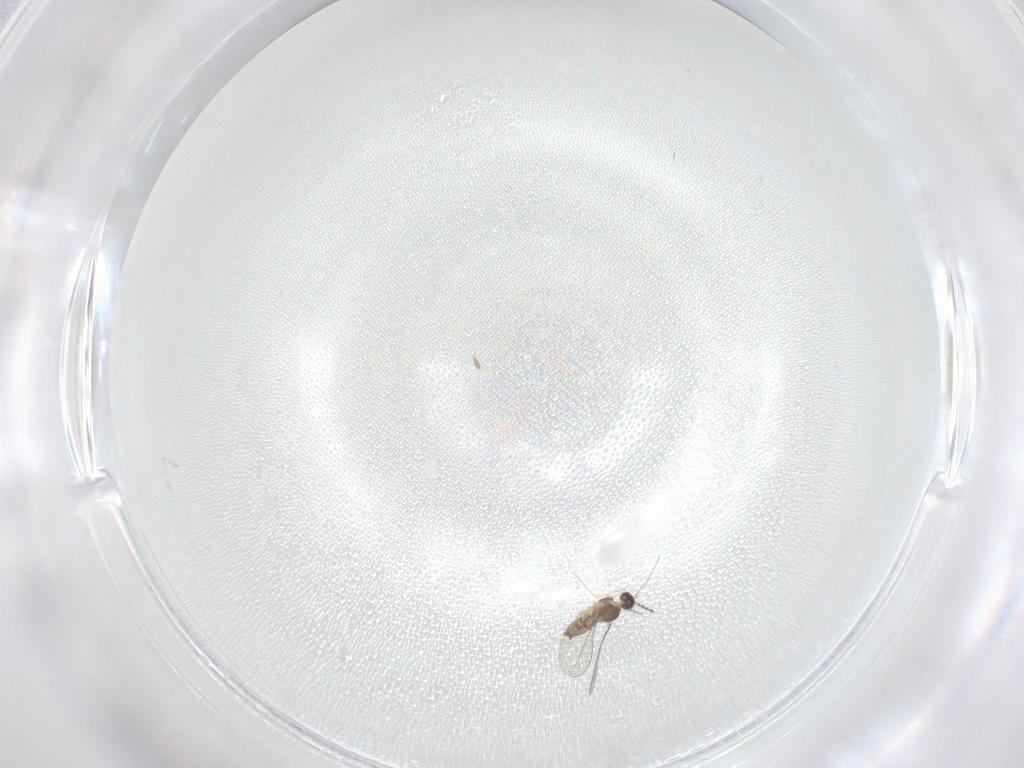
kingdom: Animalia
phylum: Arthropoda
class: Insecta
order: Diptera
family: Cecidomyiidae
